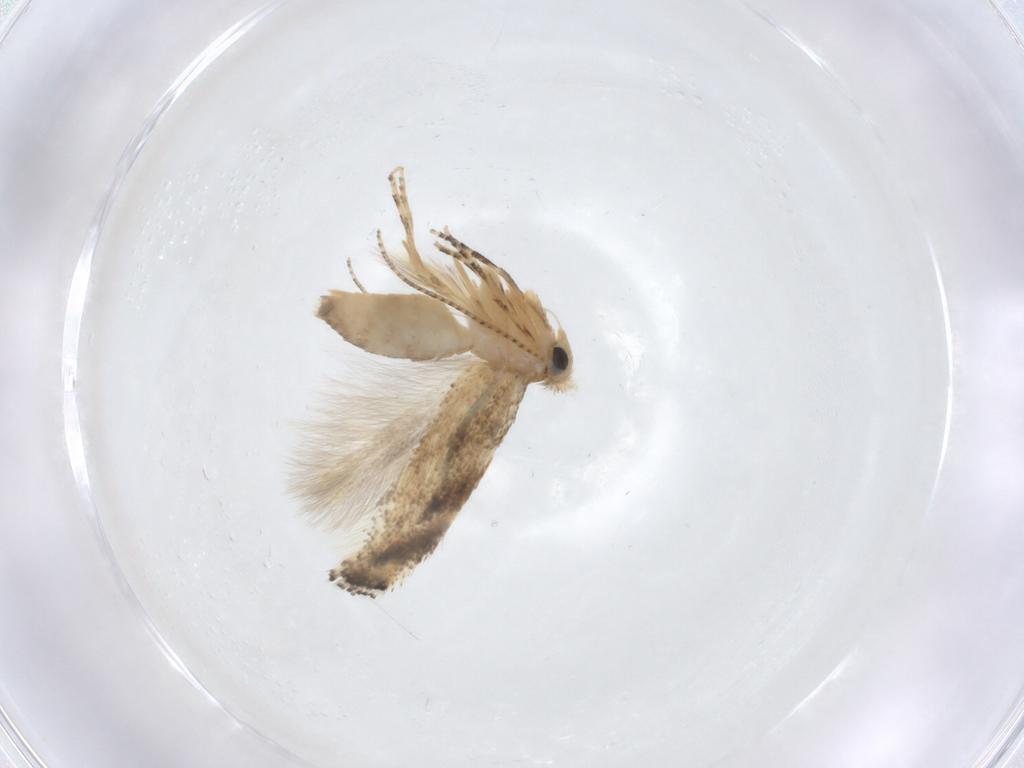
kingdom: Animalia
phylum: Arthropoda
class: Insecta
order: Lepidoptera
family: Bucculatricidae
